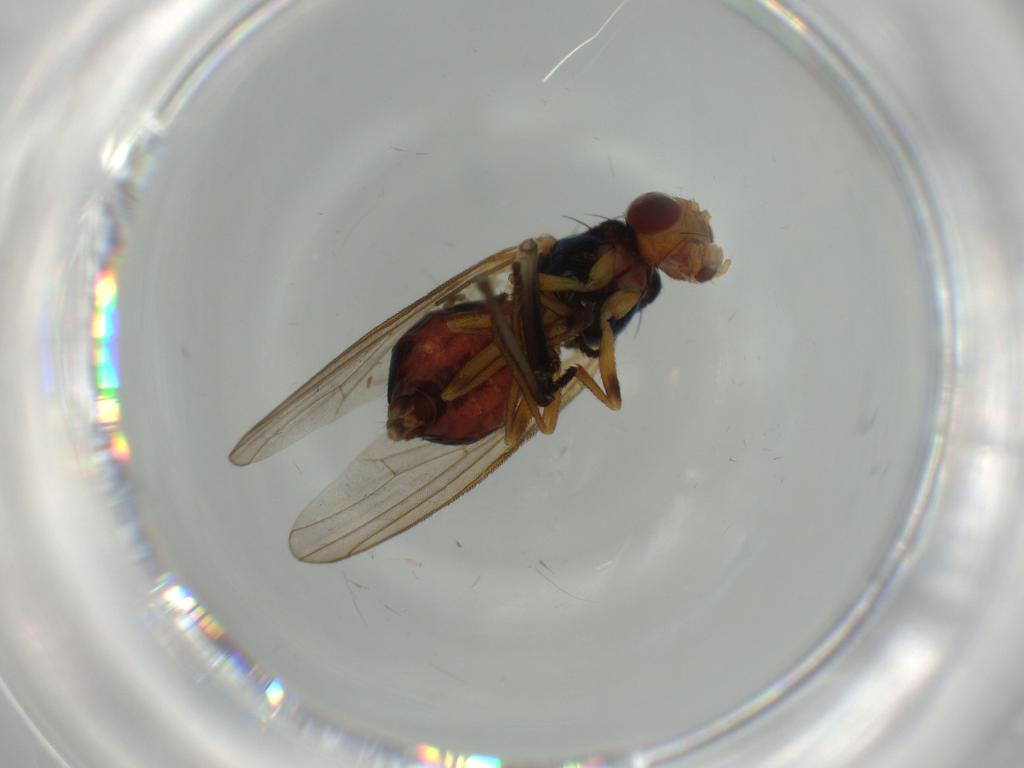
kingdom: Animalia
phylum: Arthropoda
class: Insecta
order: Diptera
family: Piophilidae
